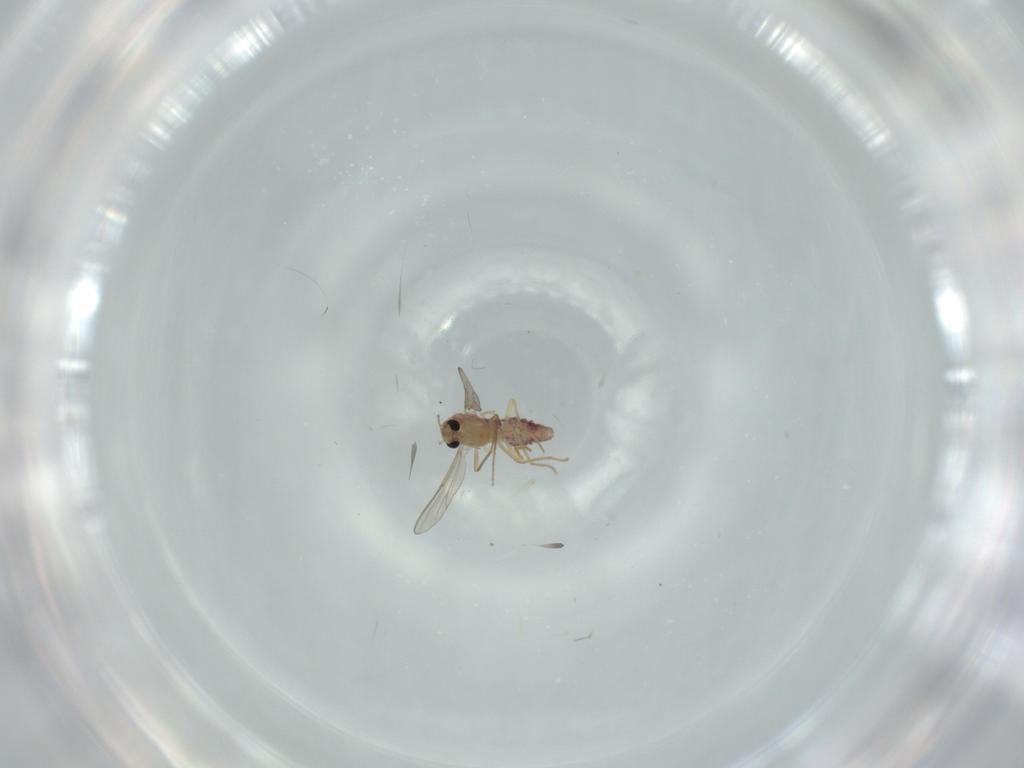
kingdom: Animalia
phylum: Arthropoda
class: Insecta
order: Diptera
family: Chironomidae
